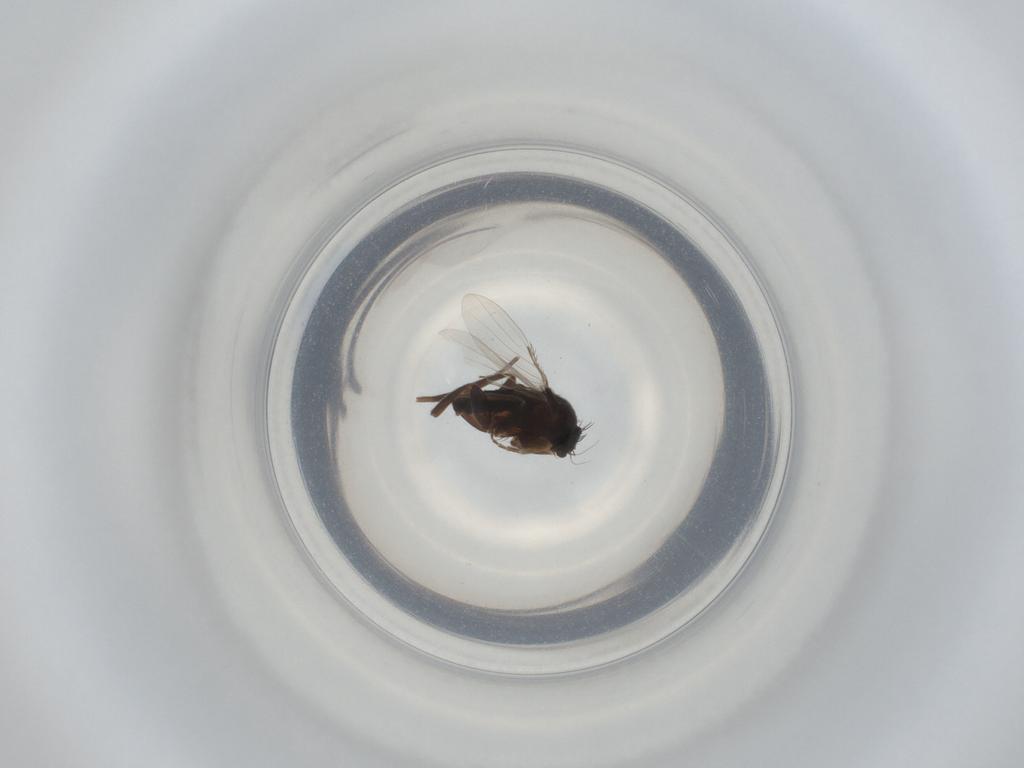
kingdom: Animalia
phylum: Arthropoda
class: Insecta
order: Diptera
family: Phoridae
